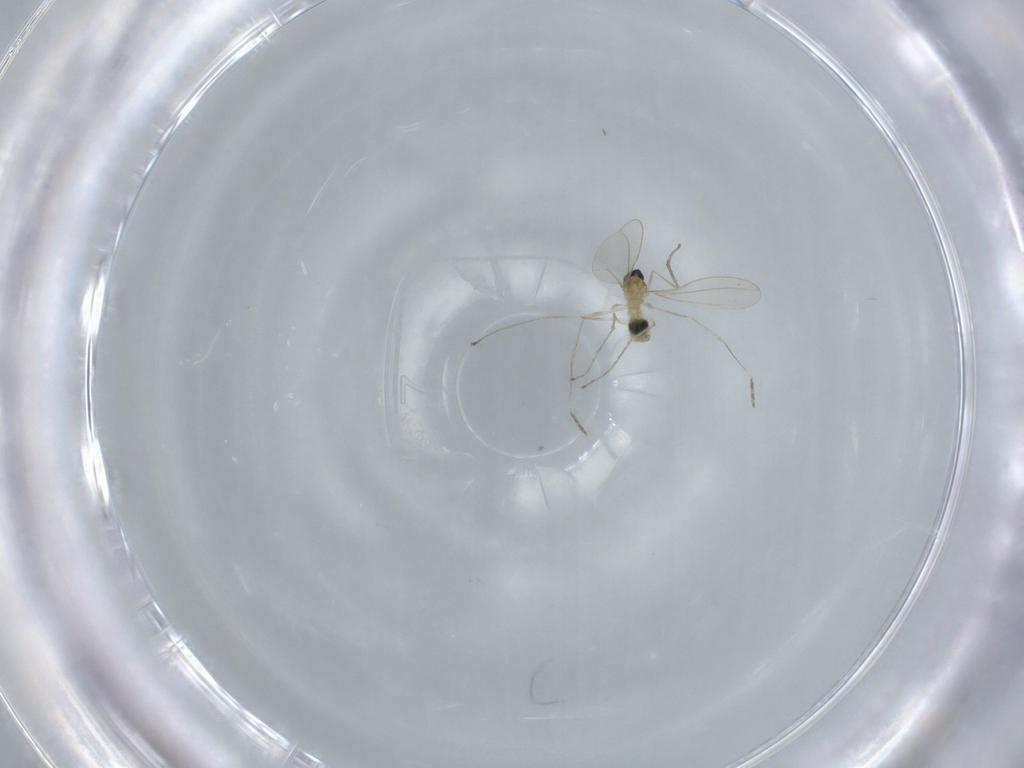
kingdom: Animalia
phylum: Arthropoda
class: Insecta
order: Diptera
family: Cecidomyiidae
